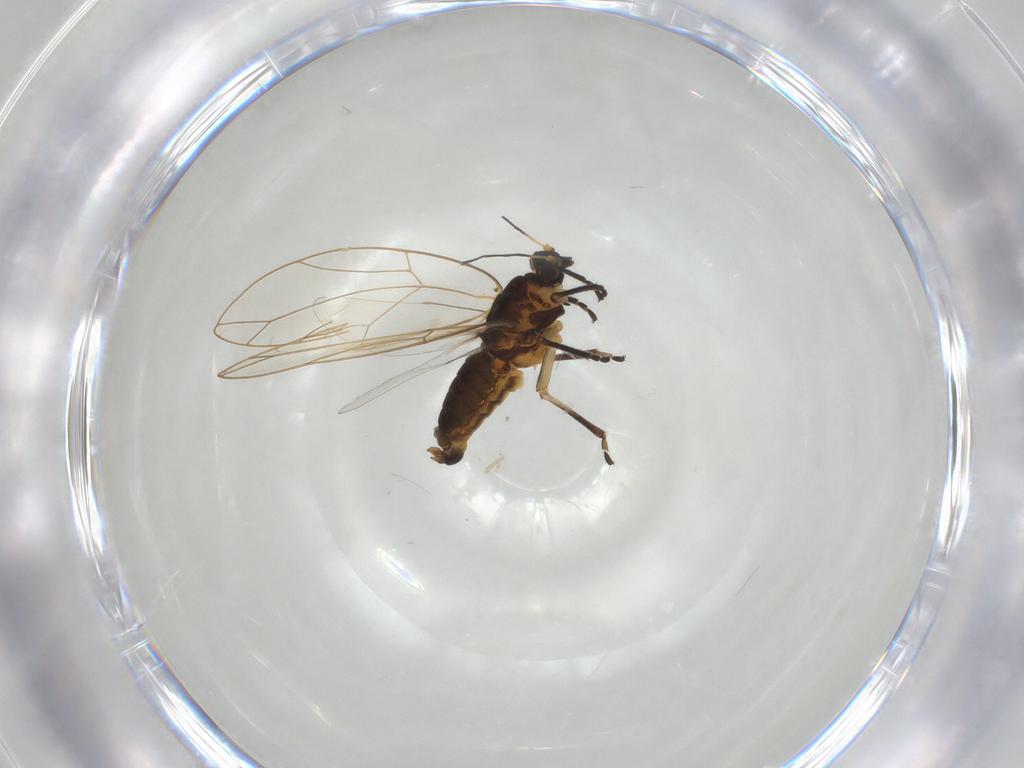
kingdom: Animalia
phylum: Arthropoda
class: Insecta
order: Hemiptera
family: Triozidae
